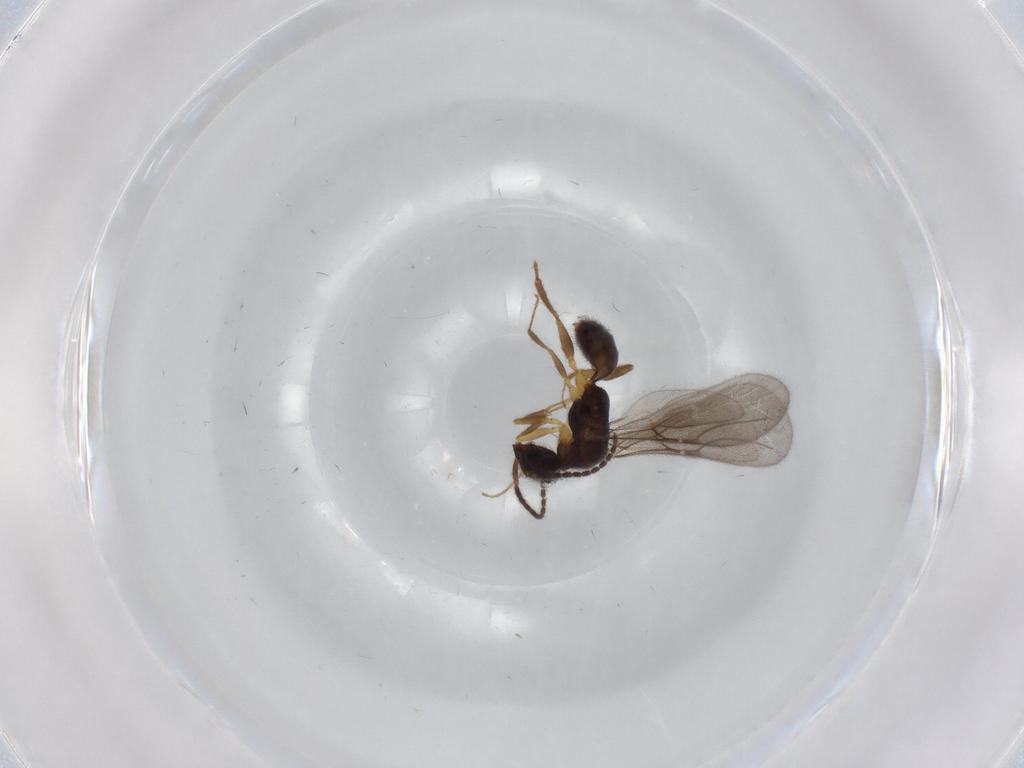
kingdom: Animalia
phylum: Arthropoda
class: Insecta
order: Hymenoptera
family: Bethylidae
